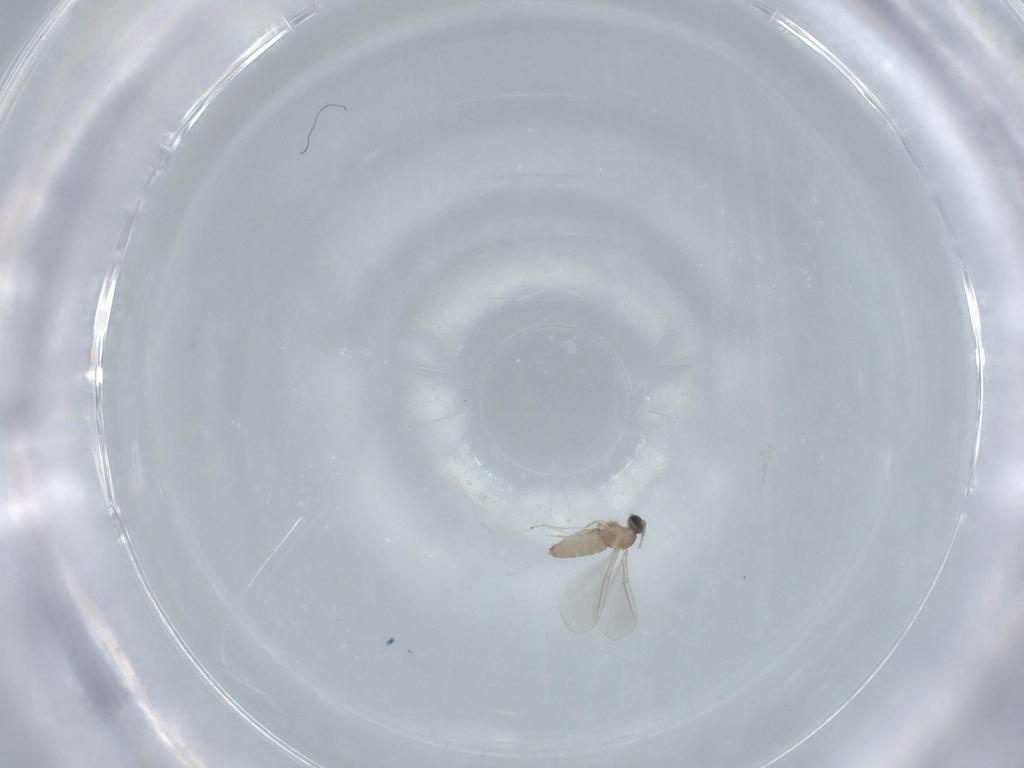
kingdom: Animalia
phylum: Arthropoda
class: Insecta
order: Diptera
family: Cecidomyiidae
